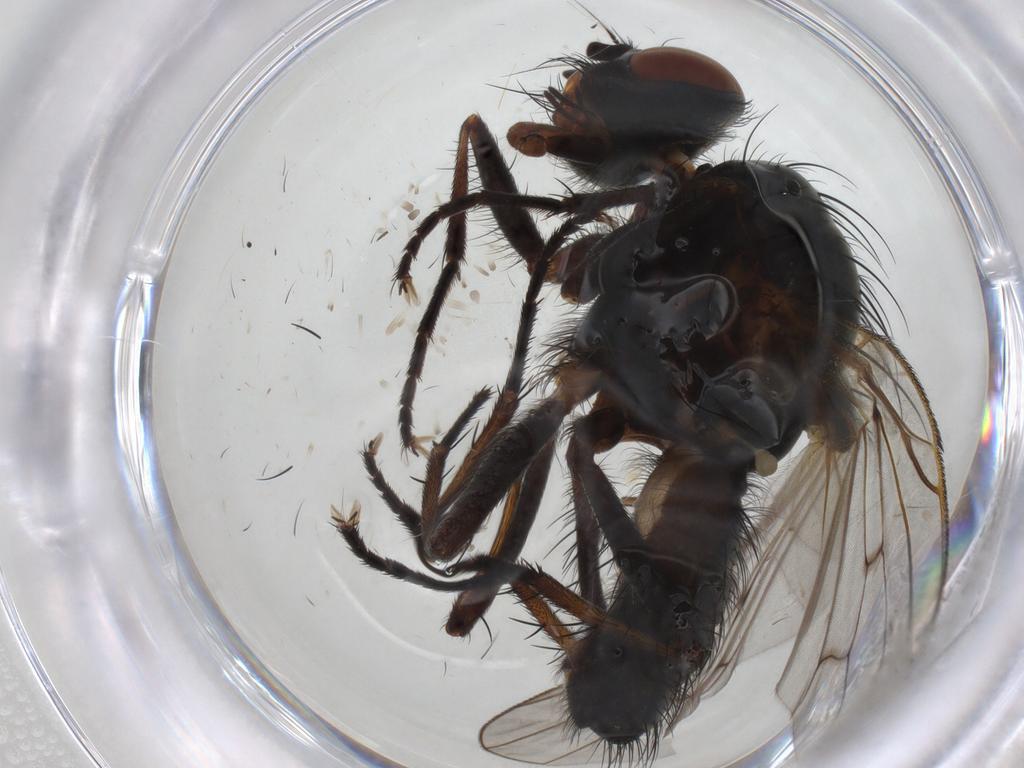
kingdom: Animalia
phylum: Arthropoda
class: Insecta
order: Diptera
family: Anthomyiidae
